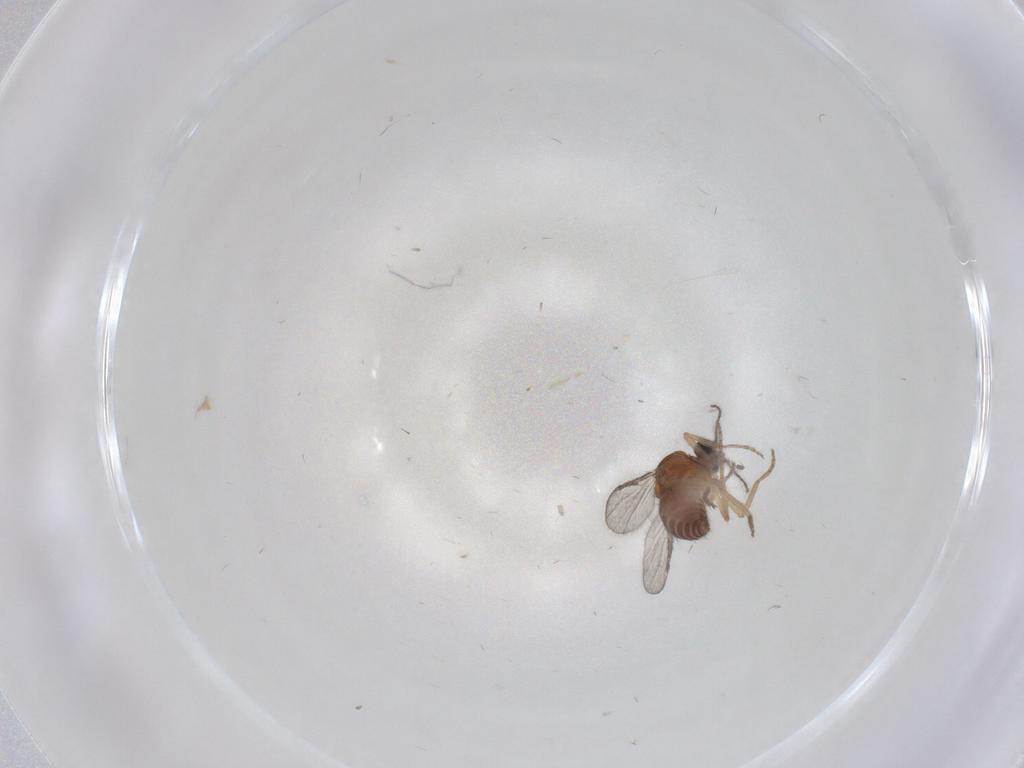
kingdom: Animalia
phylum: Arthropoda
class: Insecta
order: Diptera
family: Ceratopogonidae
